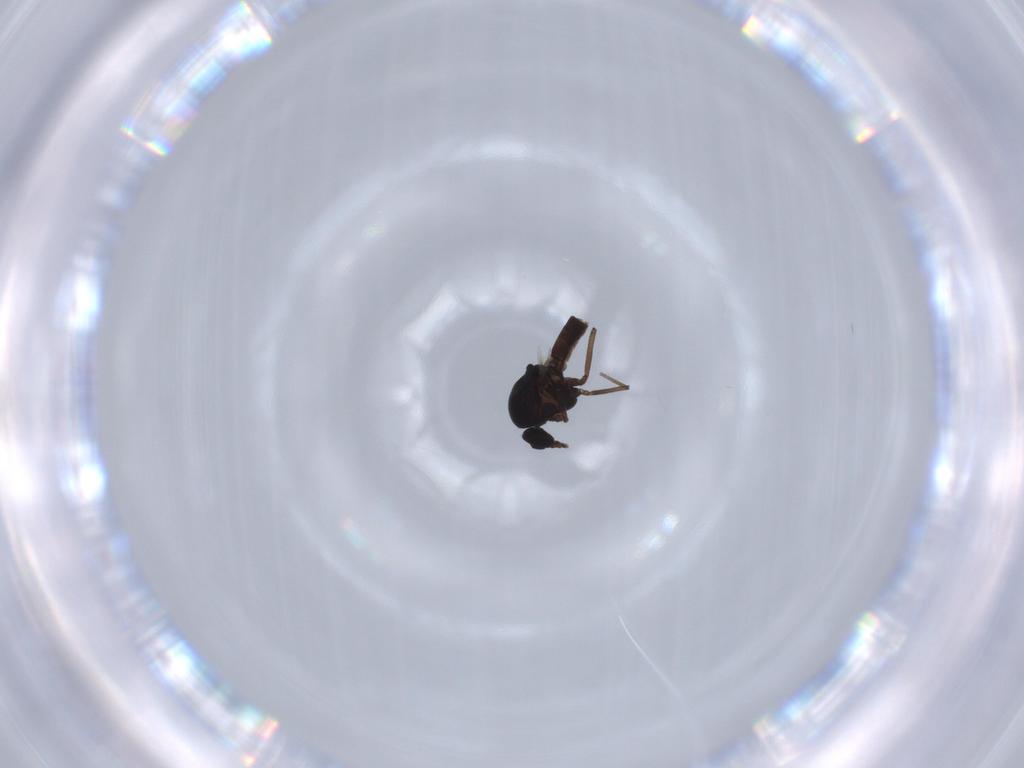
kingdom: Animalia
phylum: Arthropoda
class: Insecta
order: Diptera
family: Ceratopogonidae
